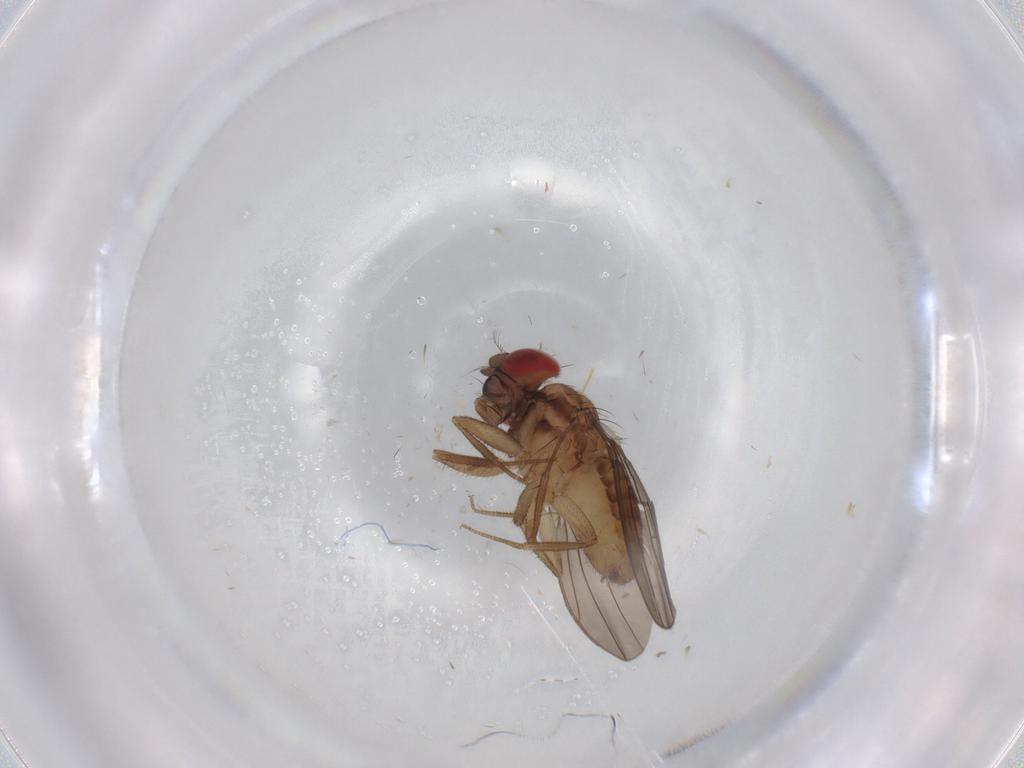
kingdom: Animalia
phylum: Arthropoda
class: Insecta
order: Diptera
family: Drosophilidae
